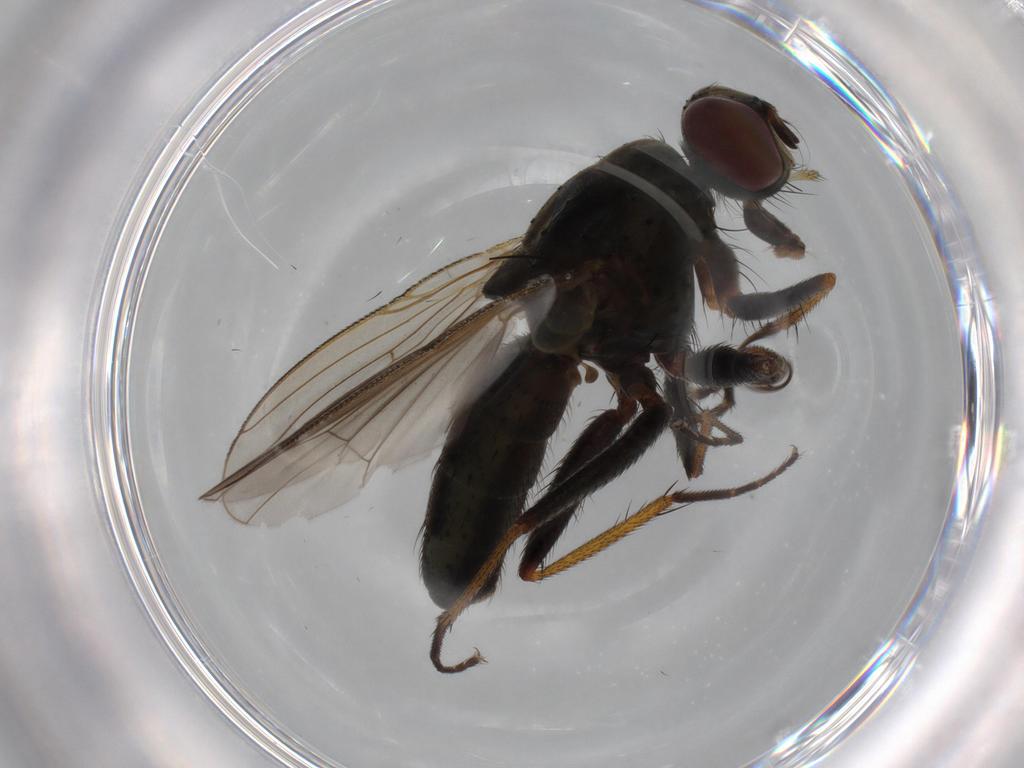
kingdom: Animalia
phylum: Arthropoda
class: Insecta
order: Diptera
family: Muscidae
